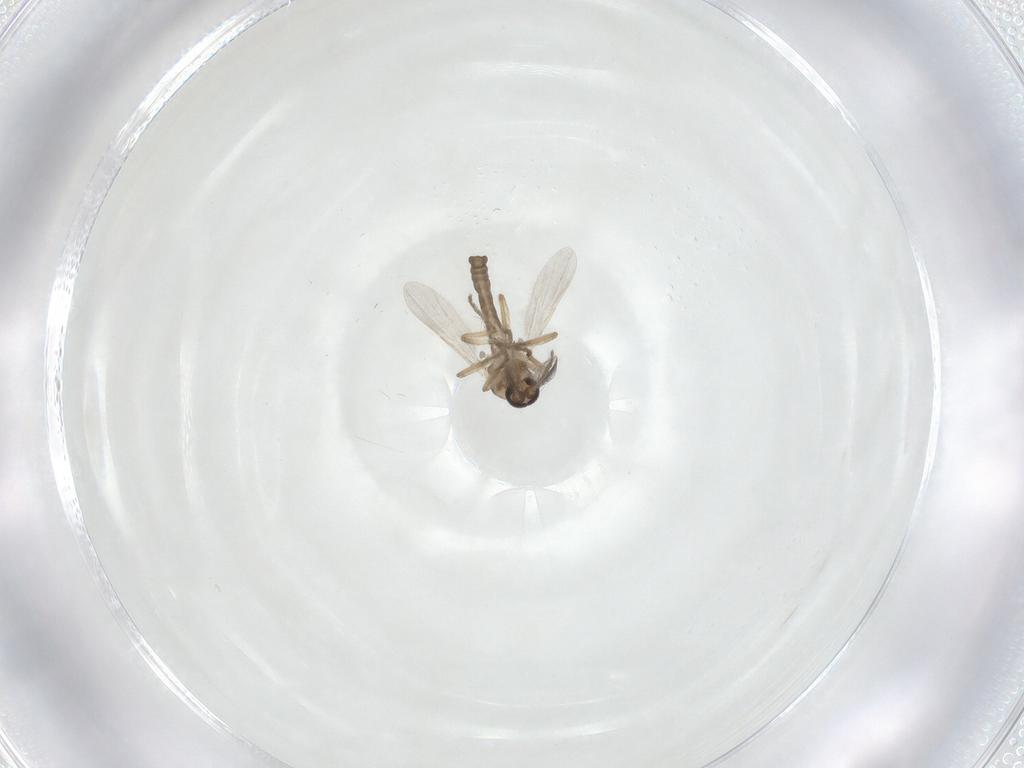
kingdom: Animalia
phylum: Arthropoda
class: Insecta
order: Diptera
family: Ceratopogonidae
